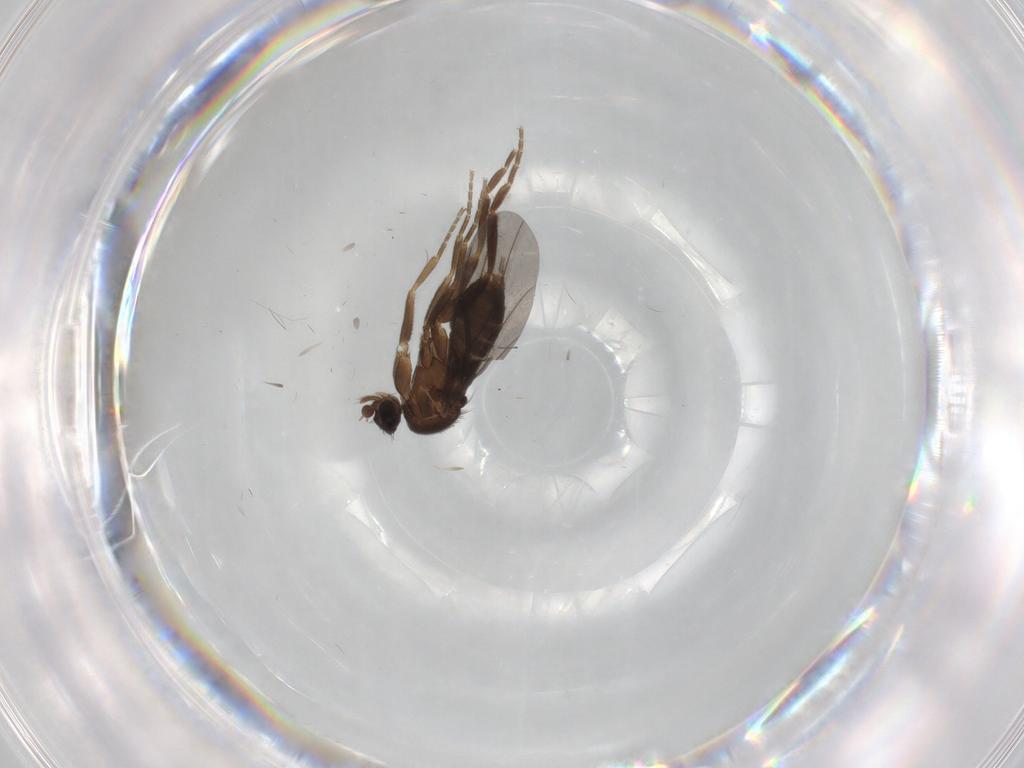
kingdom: Animalia
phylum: Arthropoda
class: Insecta
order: Diptera
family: Phoridae
